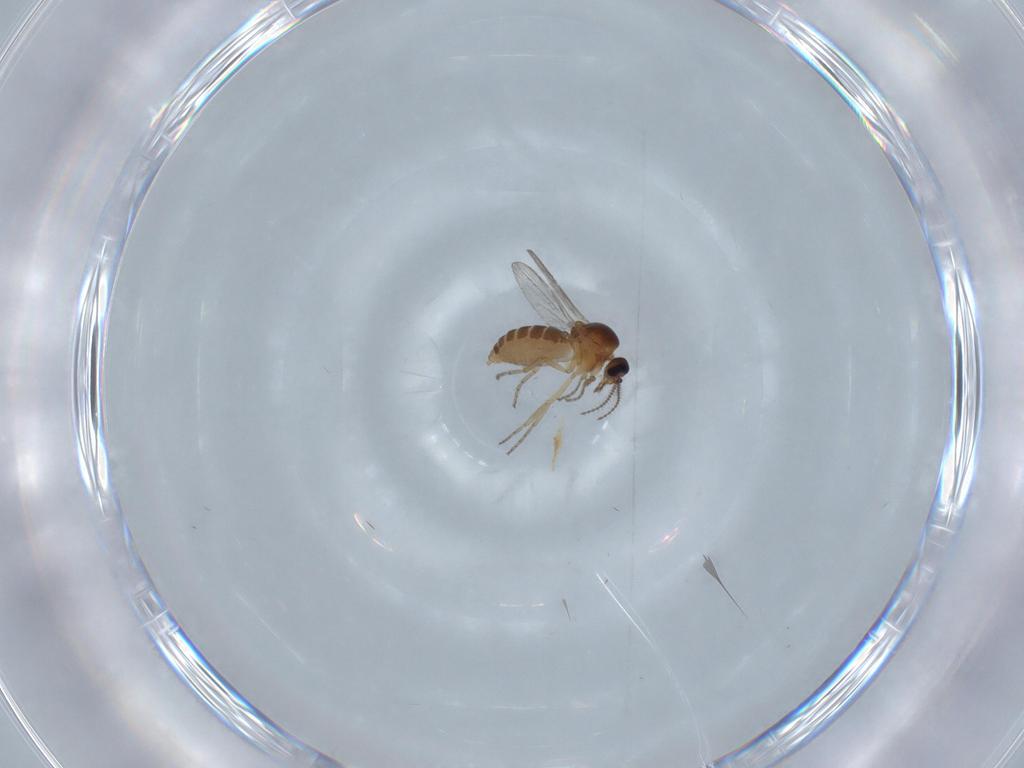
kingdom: Animalia
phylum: Arthropoda
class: Insecta
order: Diptera
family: Ceratopogonidae
